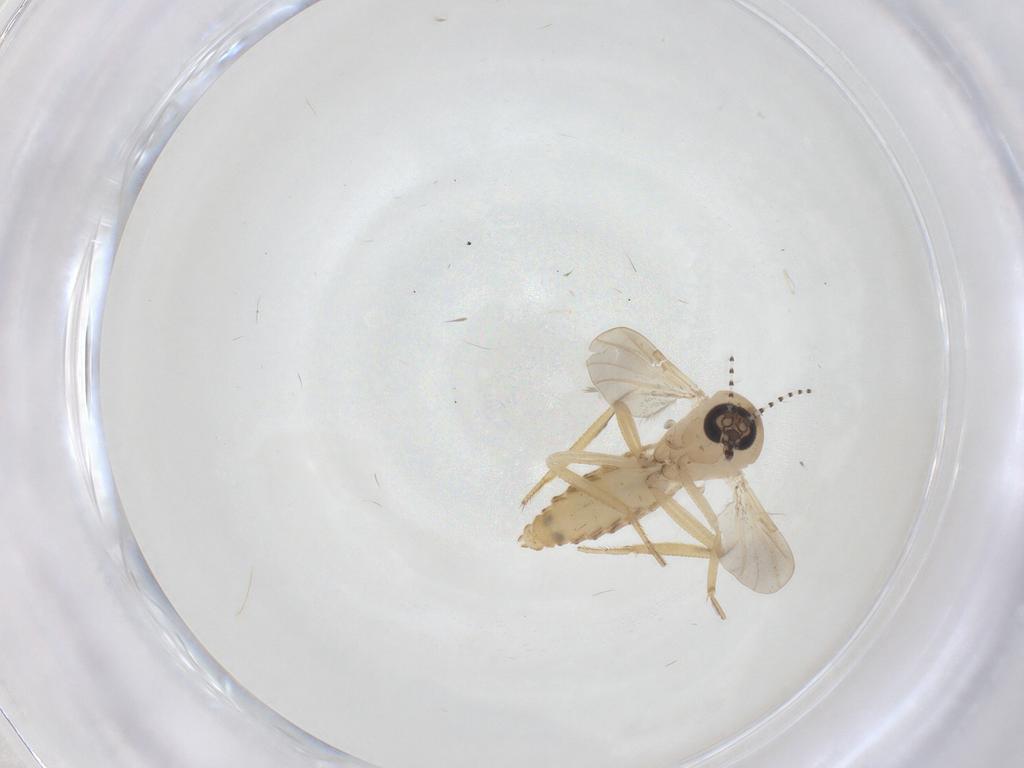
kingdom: Animalia
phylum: Arthropoda
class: Insecta
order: Diptera
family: Ceratopogonidae
